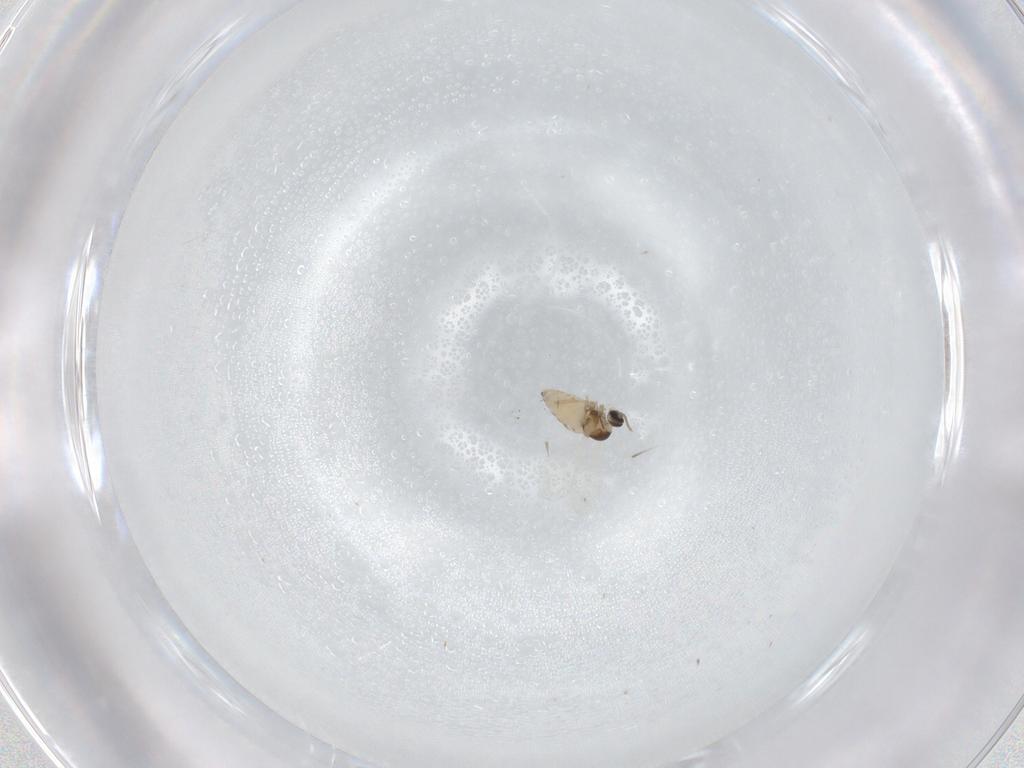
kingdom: Animalia
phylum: Arthropoda
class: Insecta
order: Diptera
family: Cecidomyiidae
